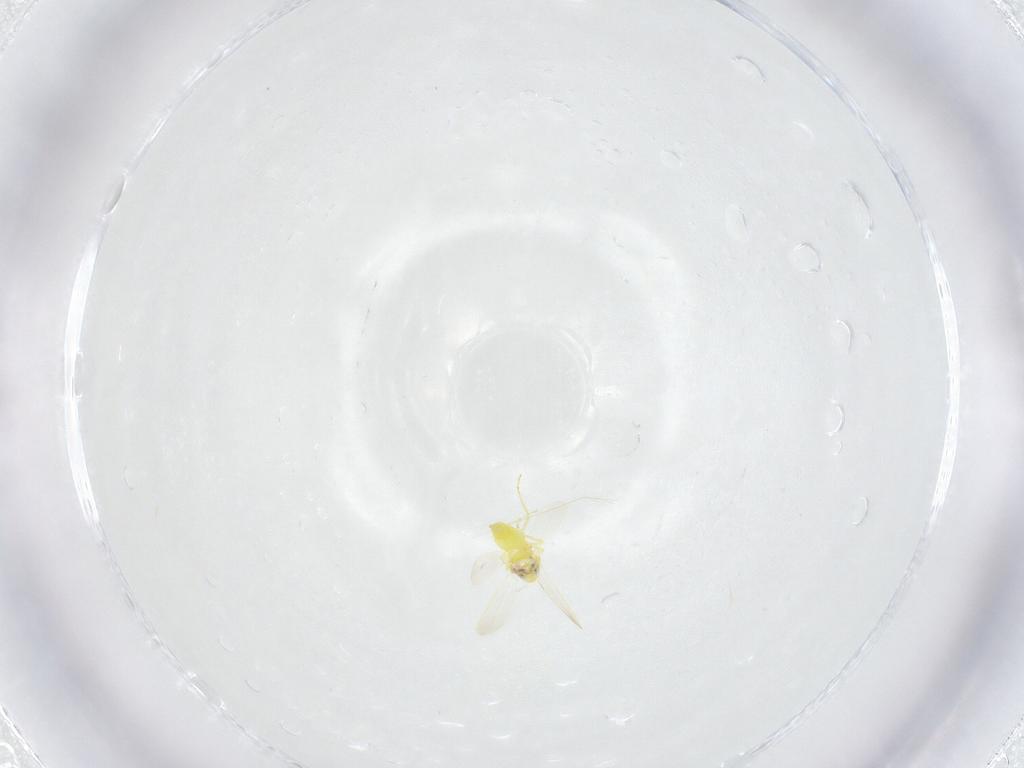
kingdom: Animalia
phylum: Arthropoda
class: Insecta
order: Hemiptera
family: Aleyrodidae
